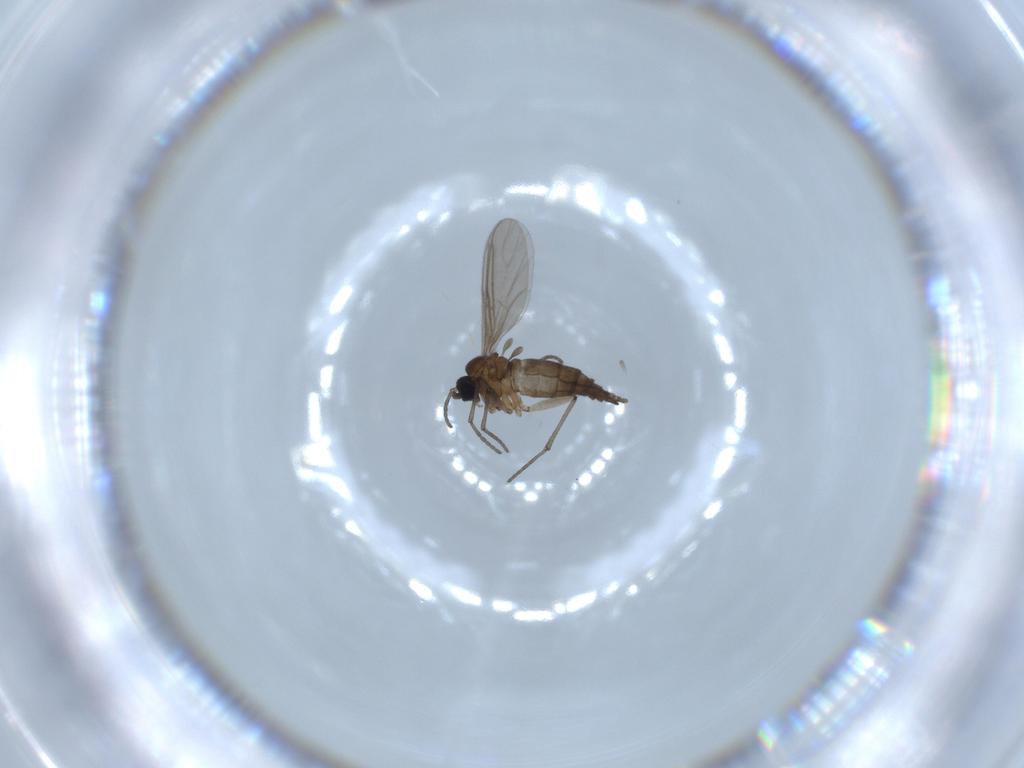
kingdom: Animalia
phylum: Arthropoda
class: Insecta
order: Diptera
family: Sciaridae
